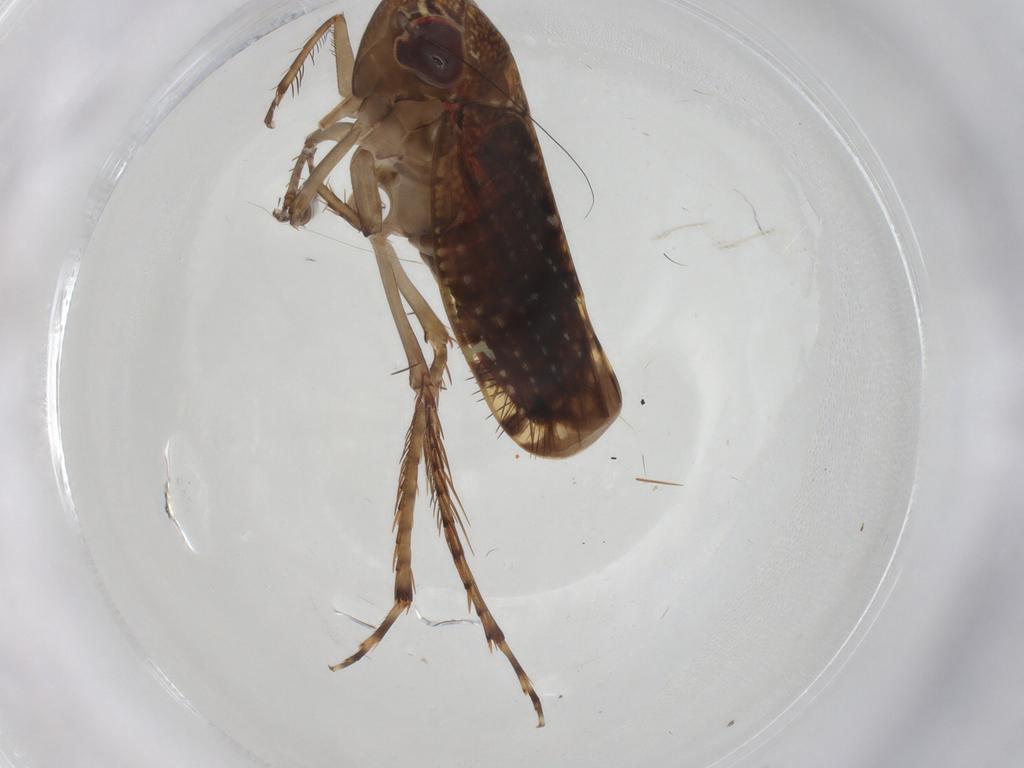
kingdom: Animalia
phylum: Arthropoda
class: Insecta
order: Hemiptera
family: Cicadellidae
